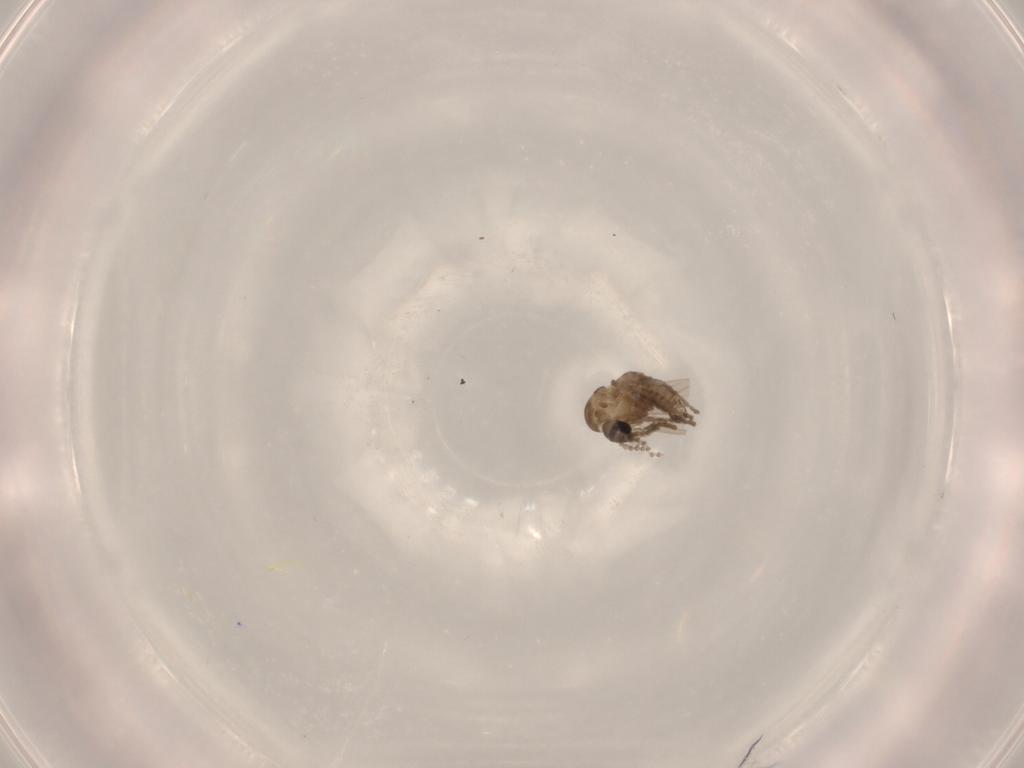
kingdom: Animalia
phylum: Arthropoda
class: Insecta
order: Diptera
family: Psychodidae
